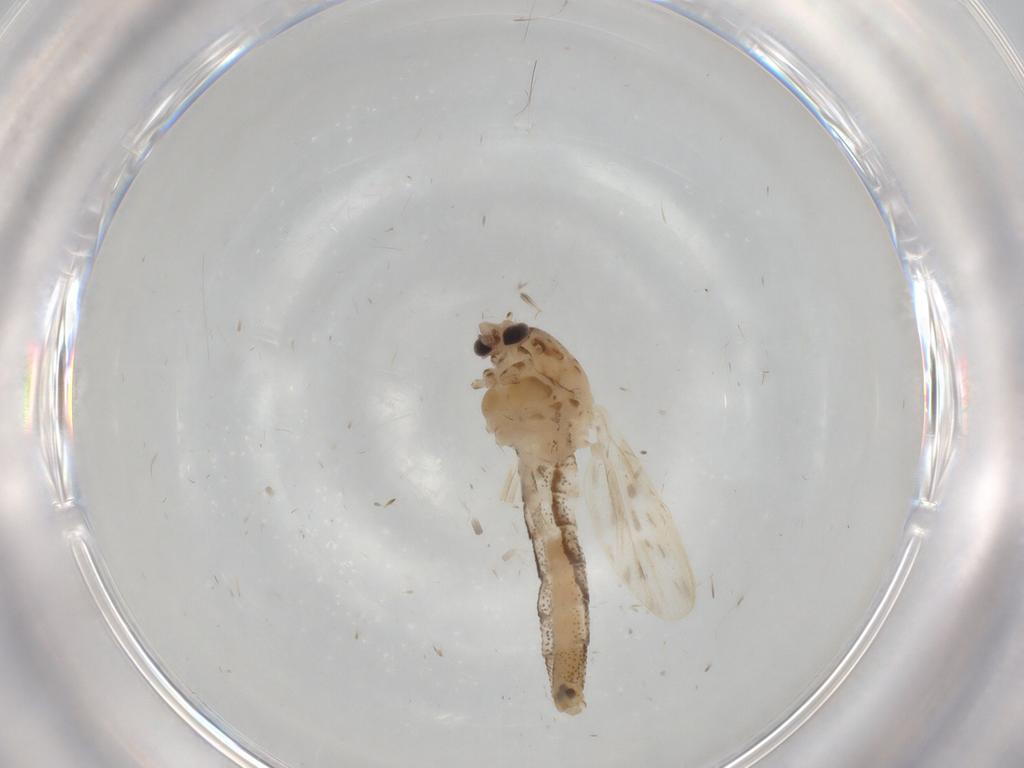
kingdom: Animalia
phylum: Arthropoda
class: Insecta
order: Diptera
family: Chaoboridae
